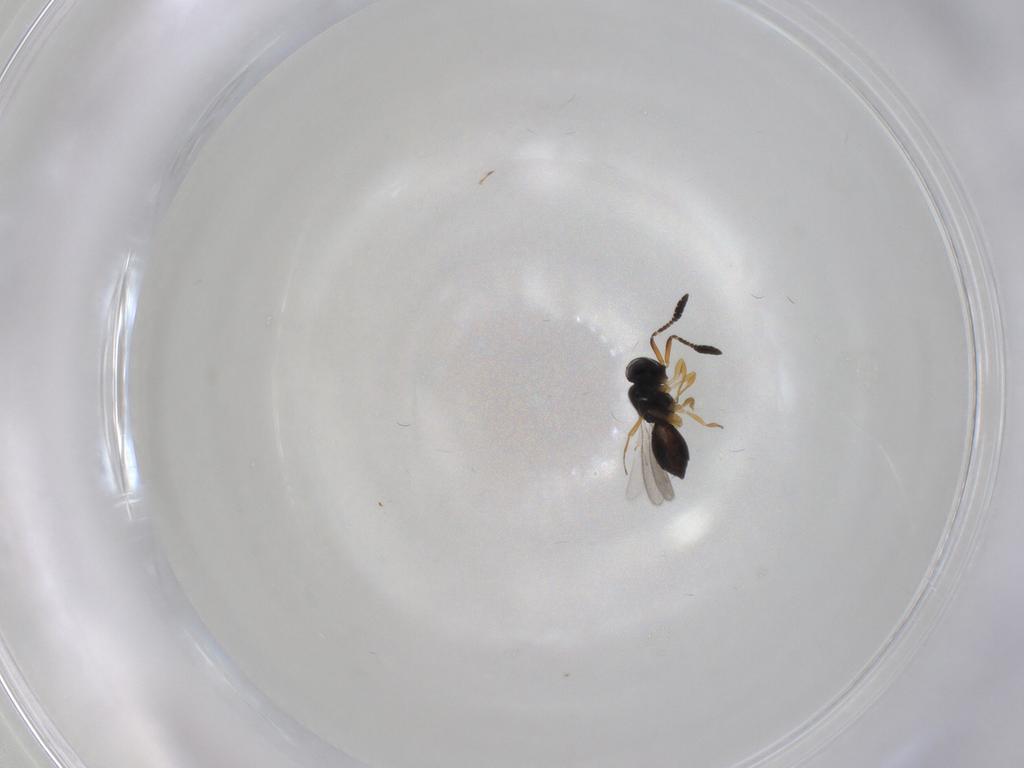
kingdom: Animalia
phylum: Arthropoda
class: Insecta
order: Hymenoptera
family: Scelionidae
